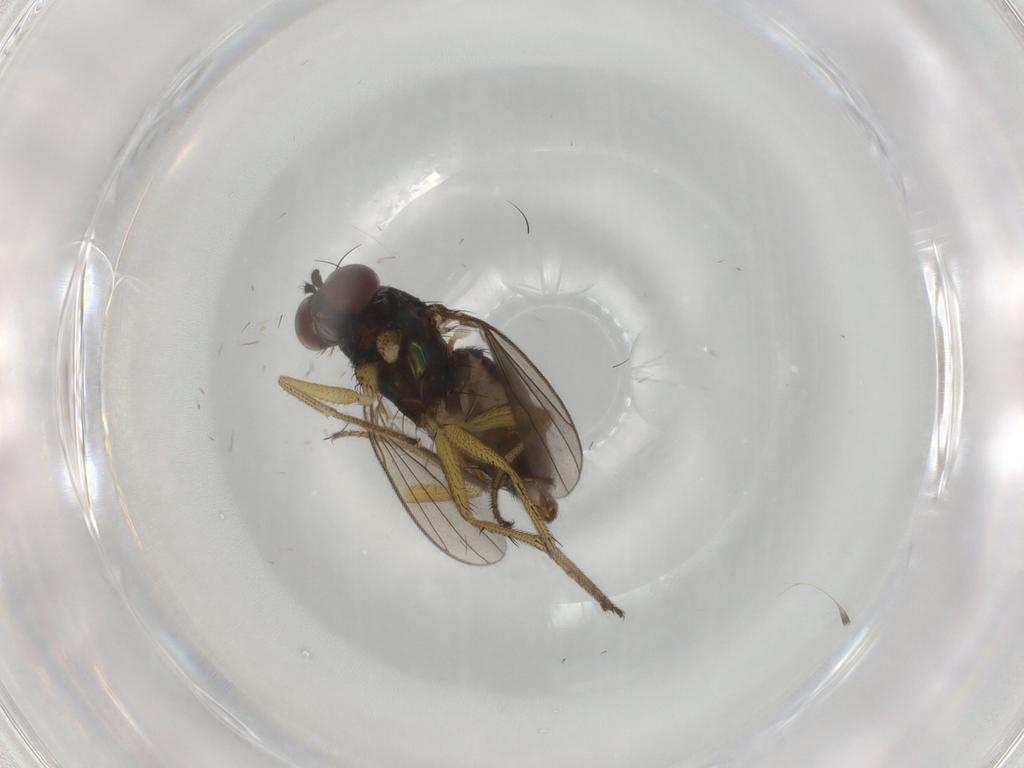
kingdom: Animalia
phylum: Arthropoda
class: Insecta
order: Diptera
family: Dolichopodidae
